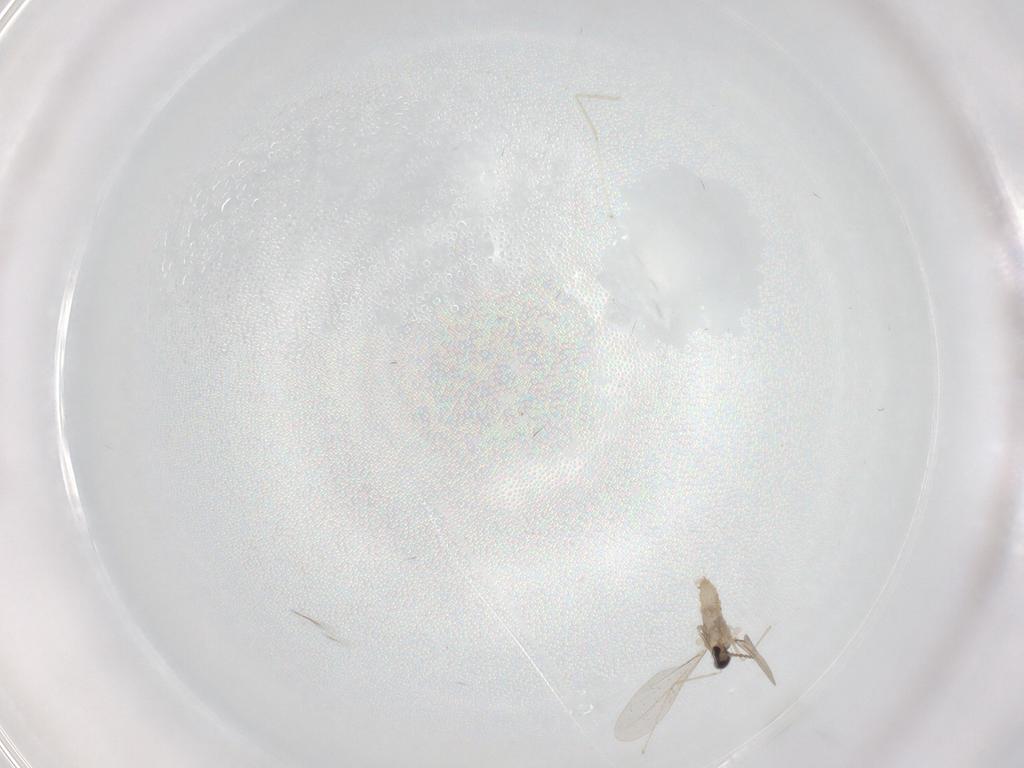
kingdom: Animalia
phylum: Arthropoda
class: Insecta
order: Diptera
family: Cecidomyiidae
